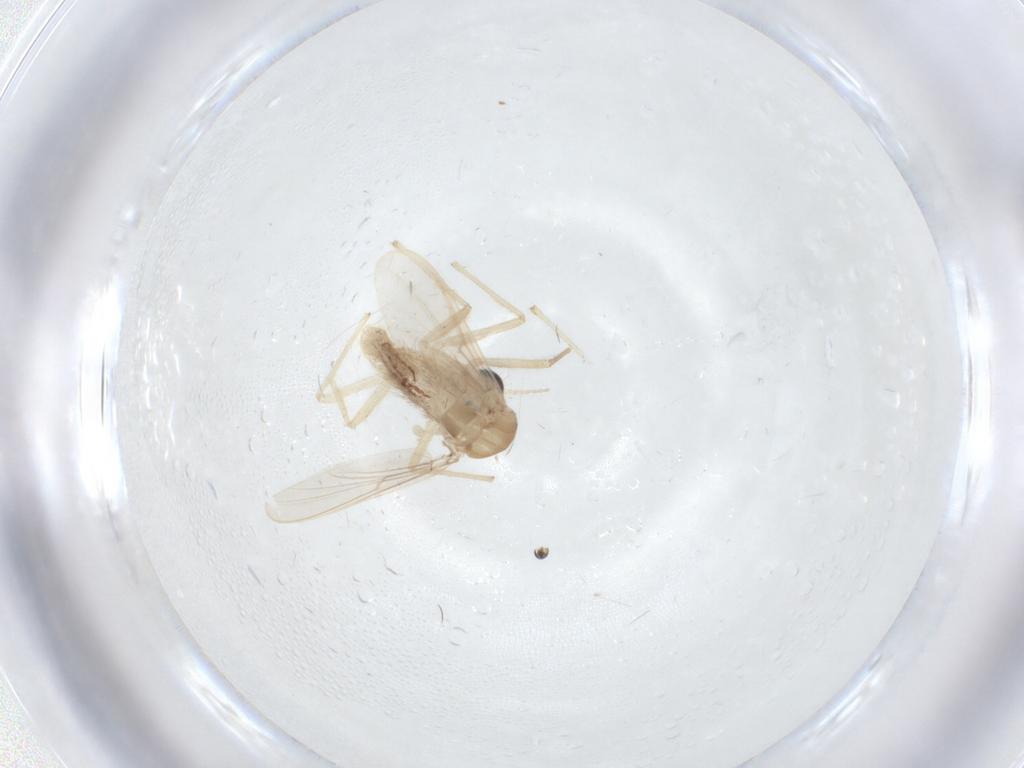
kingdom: Animalia
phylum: Arthropoda
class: Insecta
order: Diptera
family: Chironomidae
